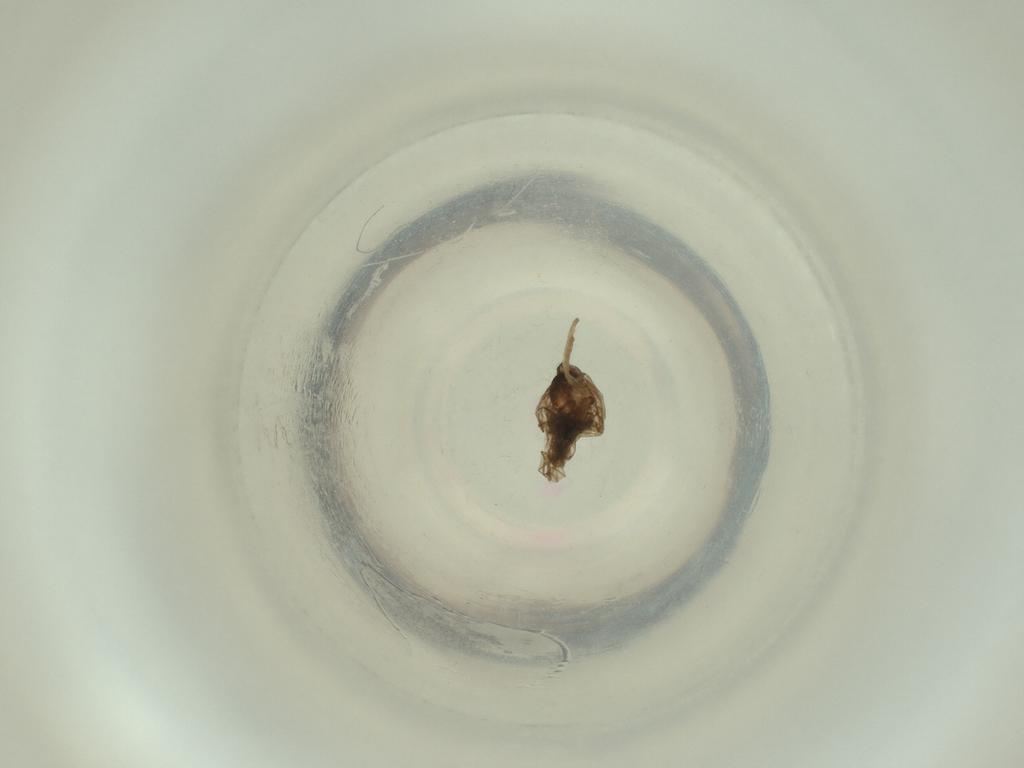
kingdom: Animalia
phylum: Arthropoda
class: Insecta
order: Diptera
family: Cecidomyiidae
